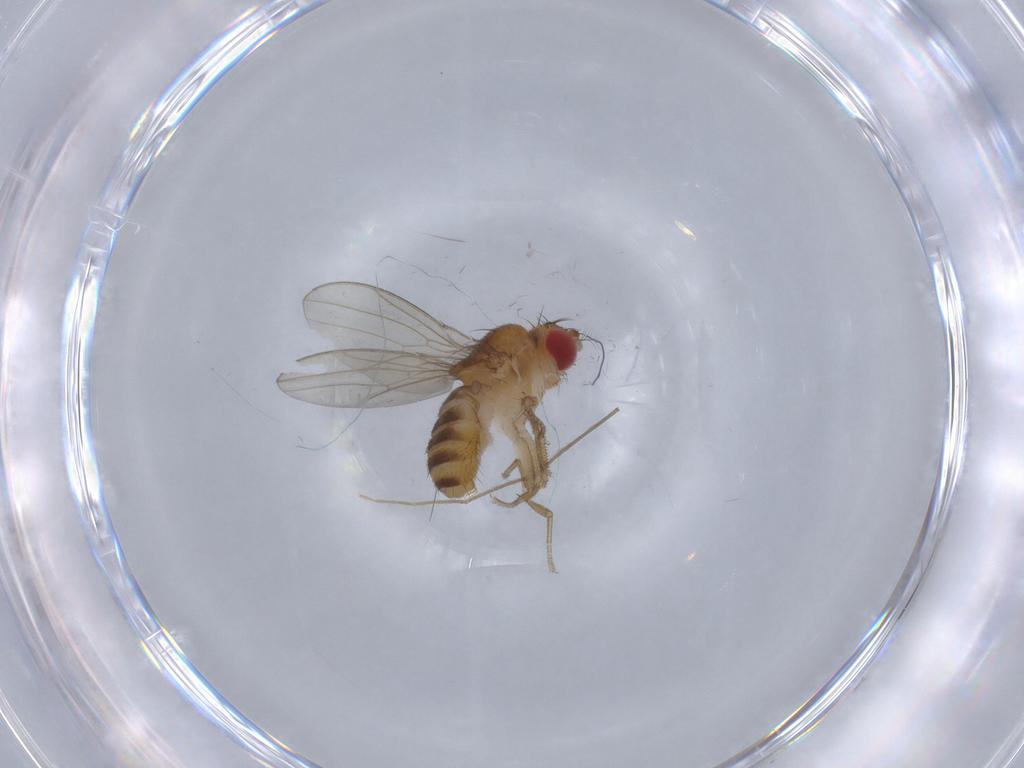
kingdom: Animalia
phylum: Arthropoda
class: Insecta
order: Diptera
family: Drosophilidae
